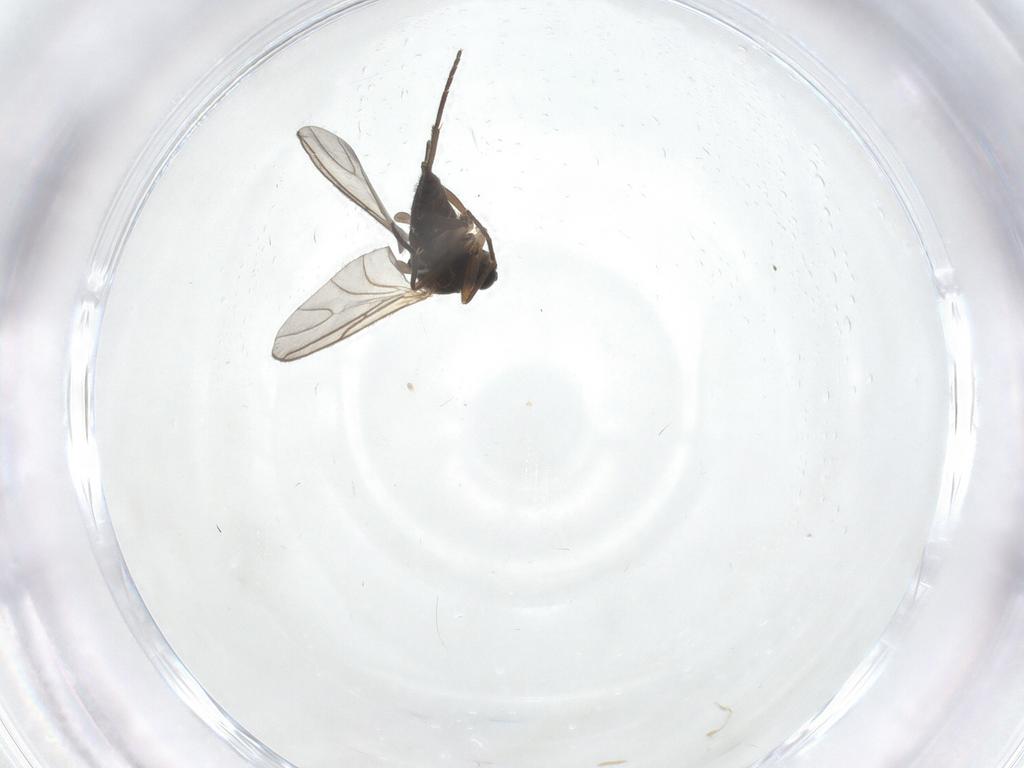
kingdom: Animalia
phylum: Arthropoda
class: Insecta
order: Diptera
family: Sciaridae
